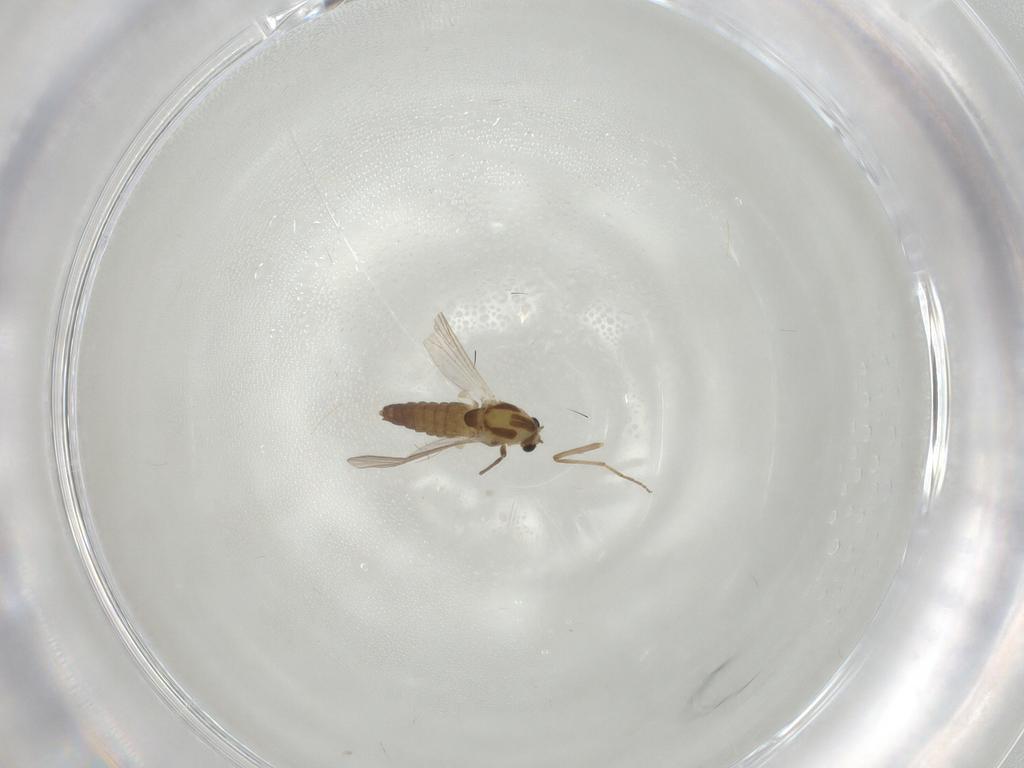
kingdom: Animalia
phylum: Arthropoda
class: Insecta
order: Diptera
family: Chironomidae
